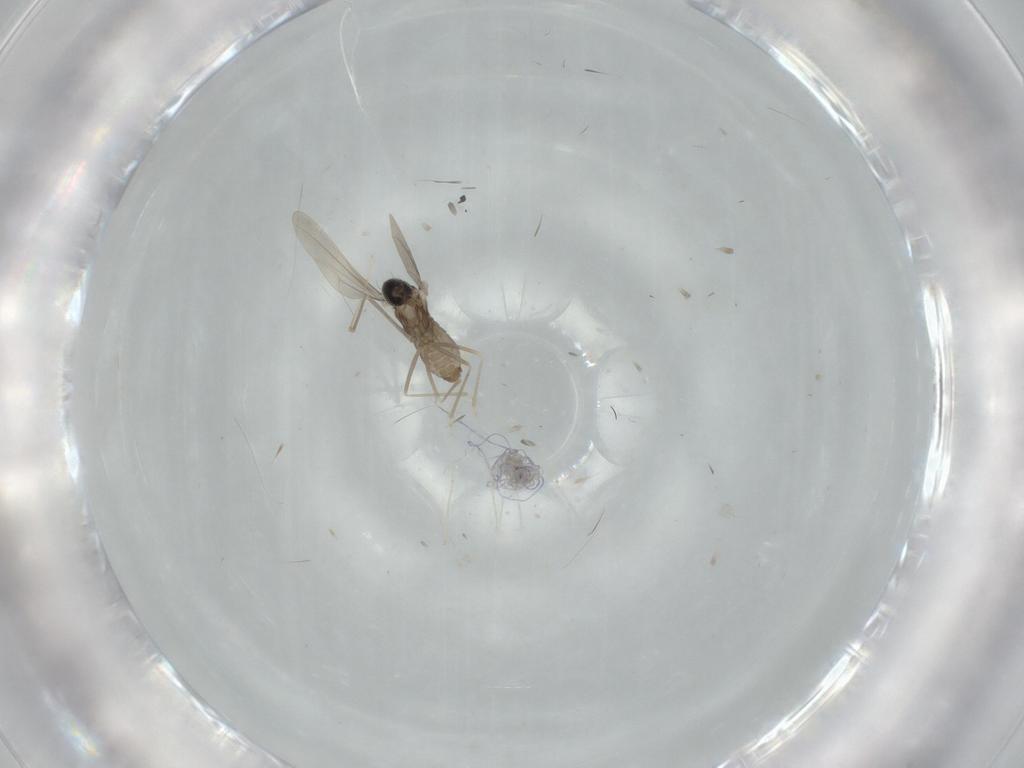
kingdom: Animalia
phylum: Arthropoda
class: Insecta
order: Diptera
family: Cecidomyiidae
